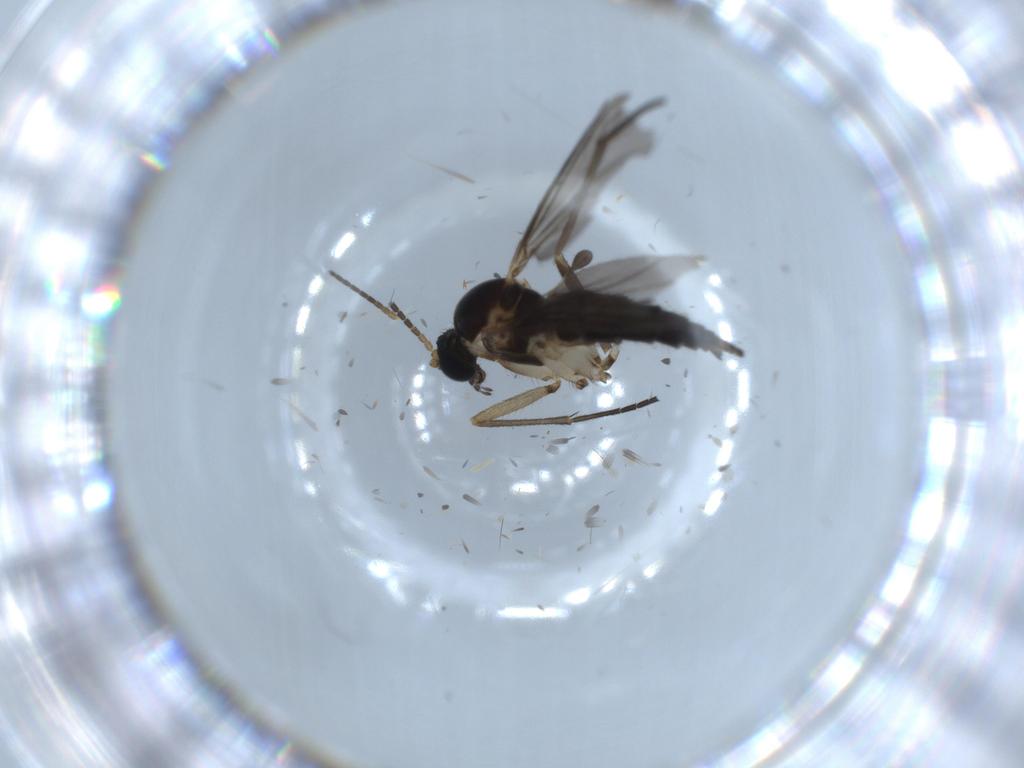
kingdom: Animalia
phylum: Arthropoda
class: Insecta
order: Diptera
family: Sciaridae
